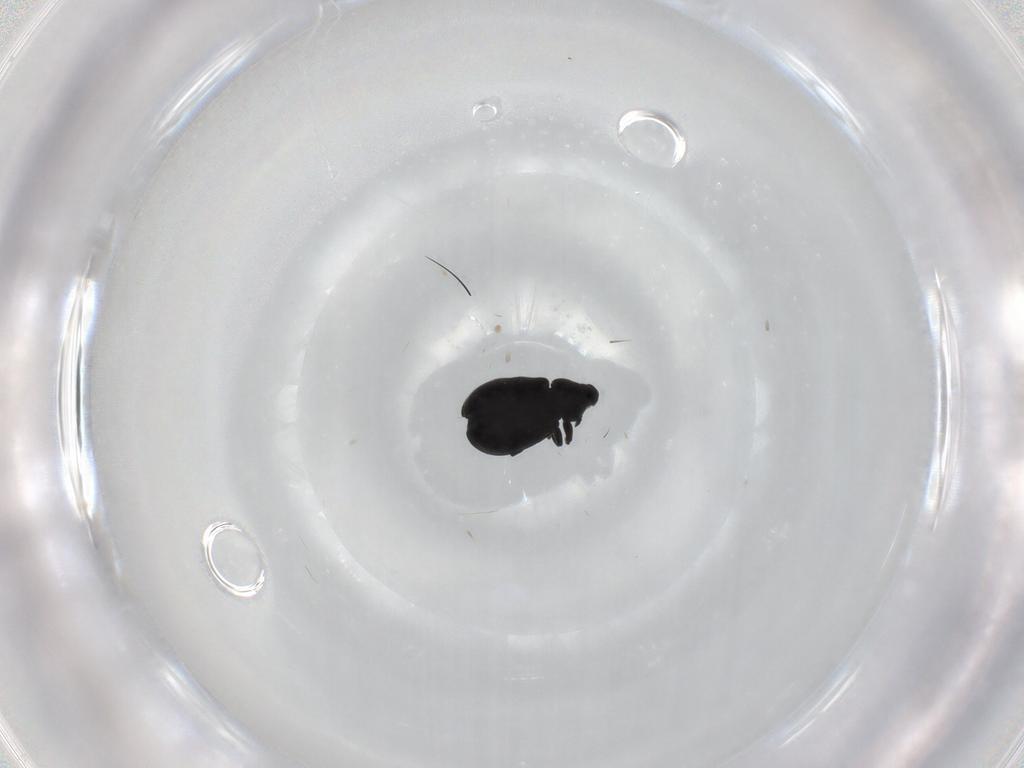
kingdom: Animalia
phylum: Arthropoda
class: Insecta
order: Coleoptera
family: Curculionidae
